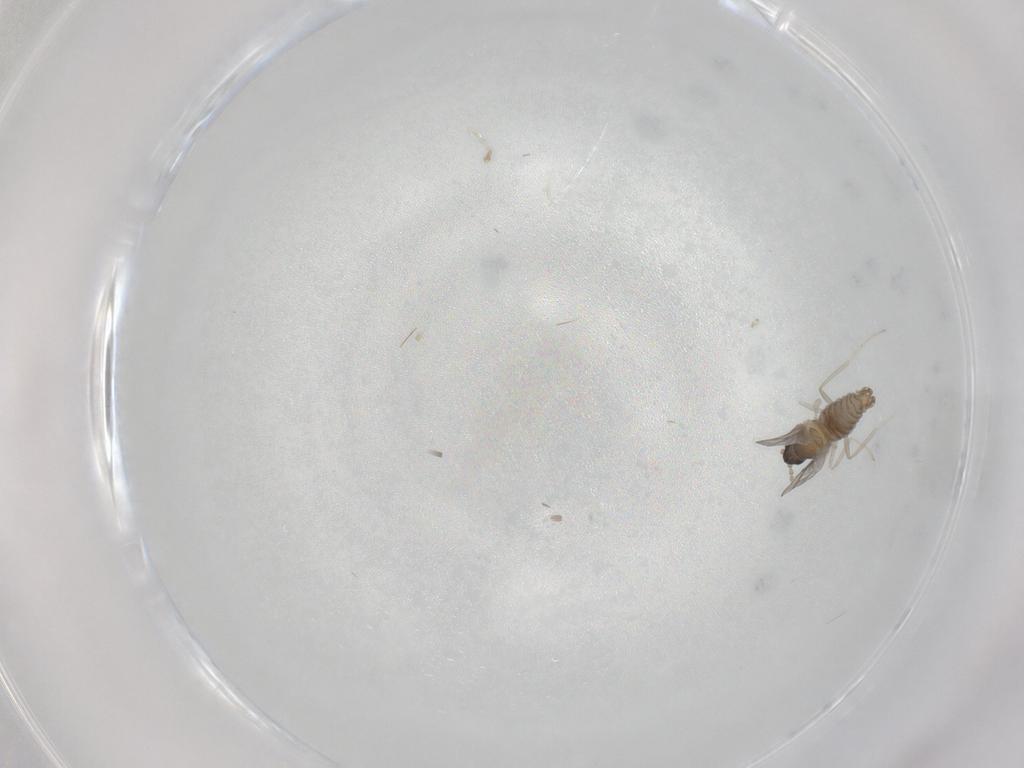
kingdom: Animalia
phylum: Arthropoda
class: Insecta
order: Diptera
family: Cecidomyiidae
